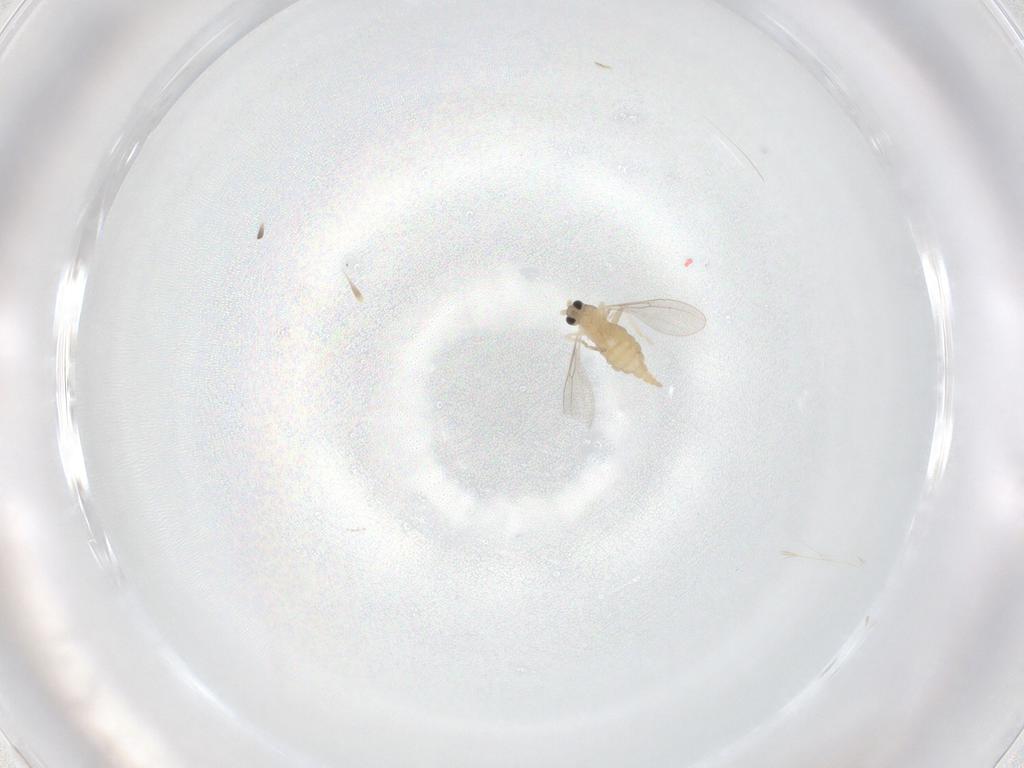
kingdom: Animalia
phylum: Arthropoda
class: Insecta
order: Diptera
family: Cecidomyiidae
